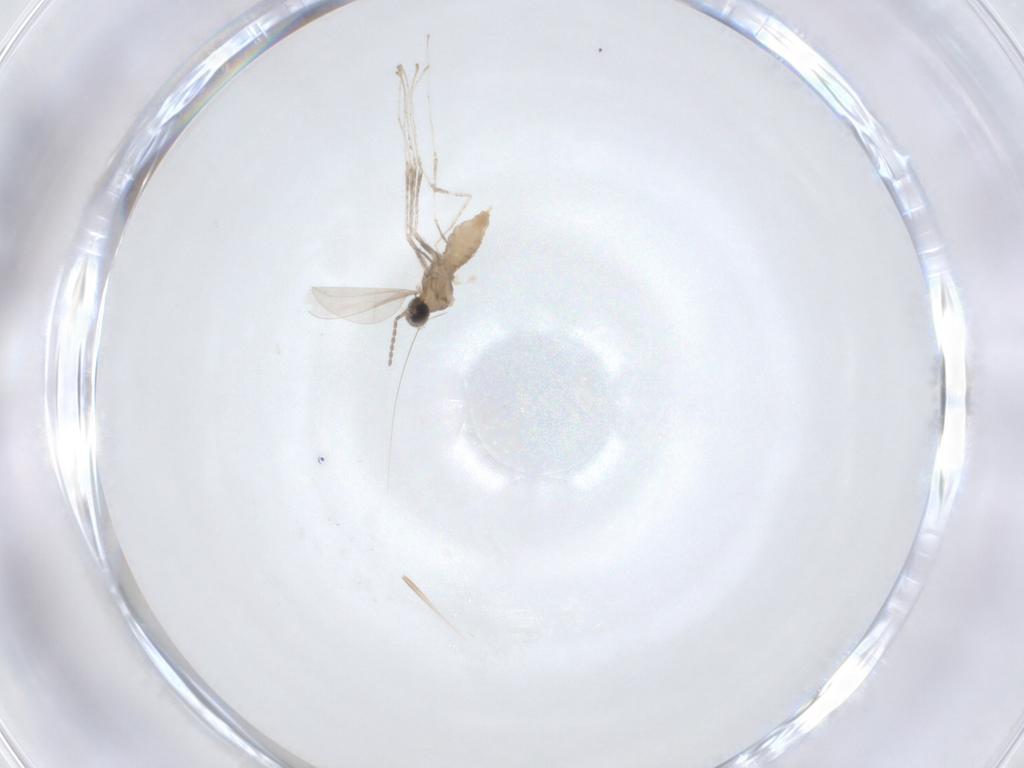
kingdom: Animalia
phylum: Arthropoda
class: Insecta
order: Diptera
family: Cecidomyiidae
